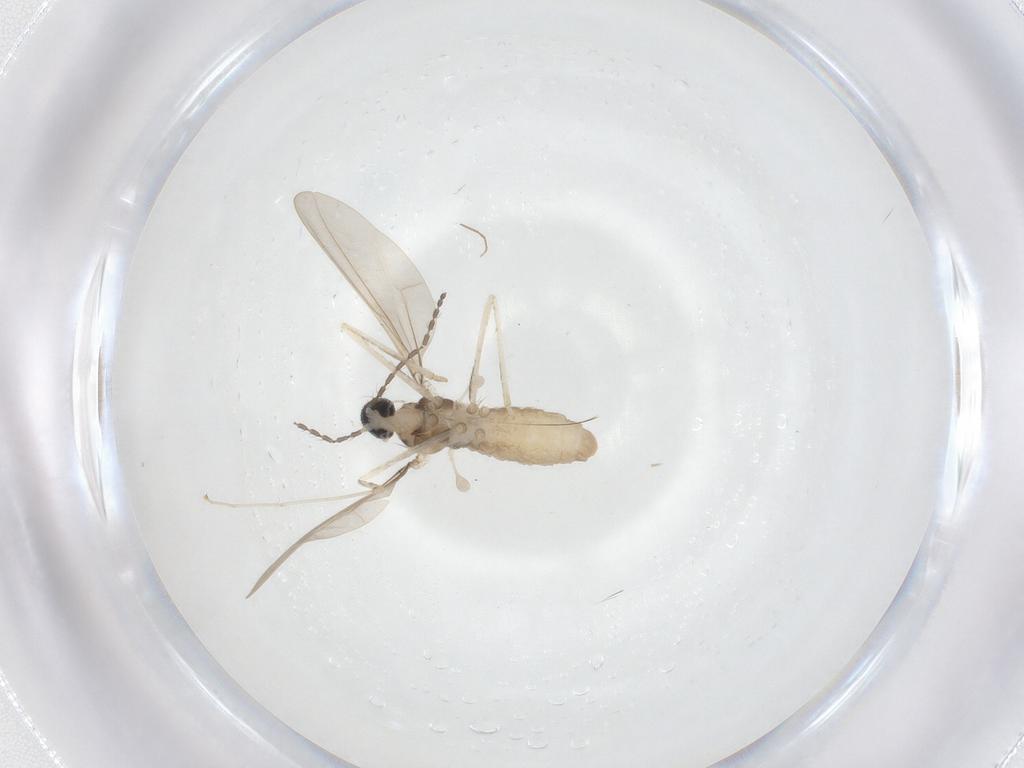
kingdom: Animalia
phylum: Arthropoda
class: Insecta
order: Diptera
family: Cecidomyiidae
